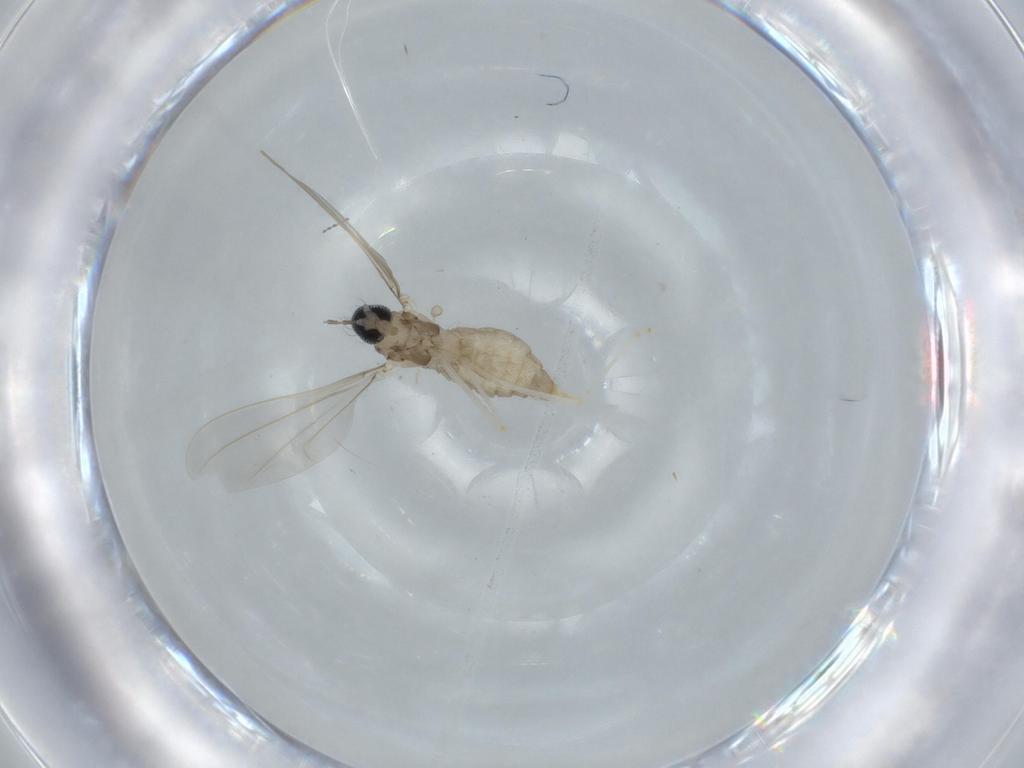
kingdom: Animalia
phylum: Arthropoda
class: Insecta
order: Diptera
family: Cecidomyiidae
